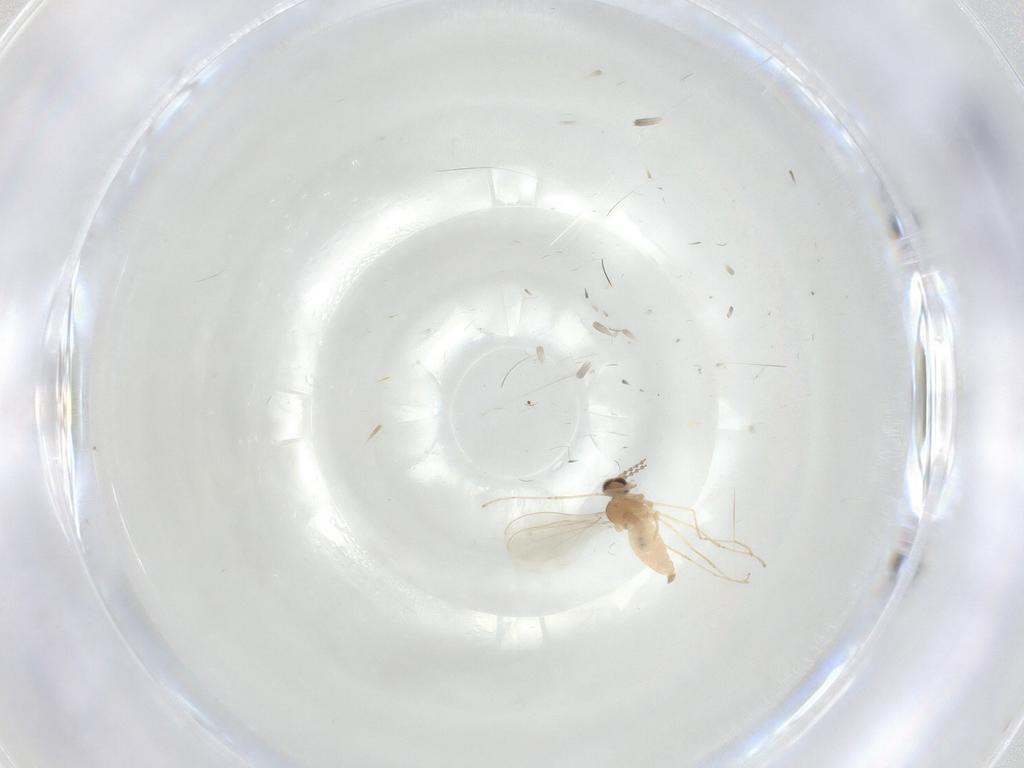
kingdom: Animalia
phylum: Arthropoda
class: Insecta
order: Diptera
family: Cecidomyiidae
